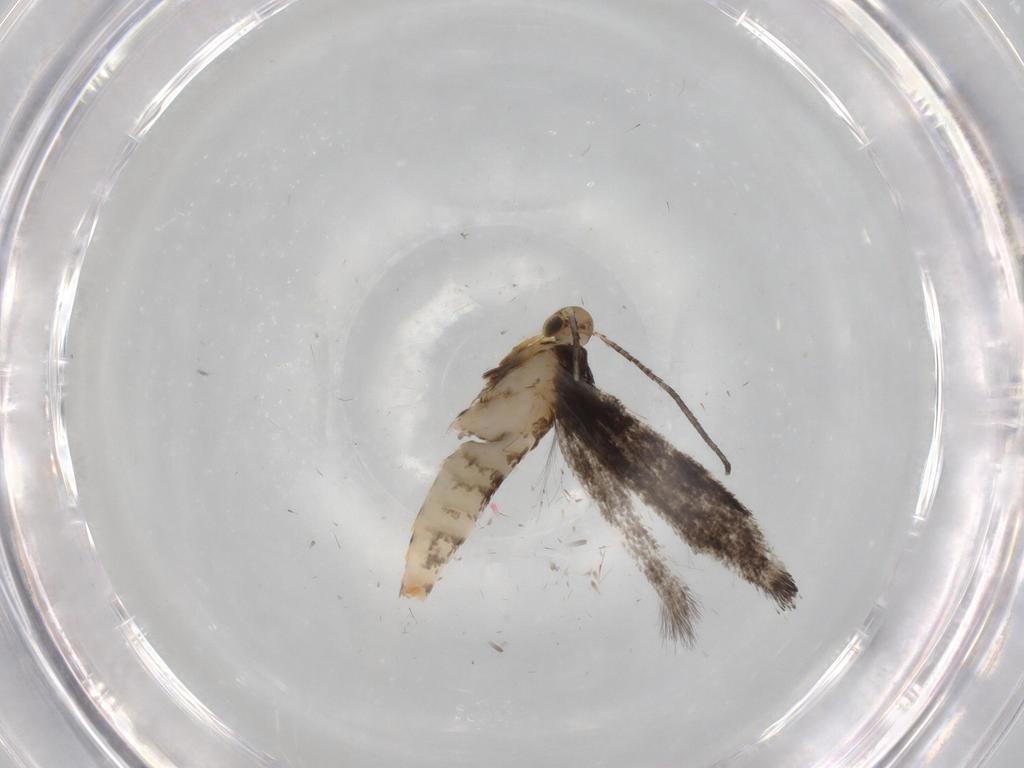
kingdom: Animalia
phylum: Arthropoda
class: Insecta
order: Lepidoptera
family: Gracillariidae
